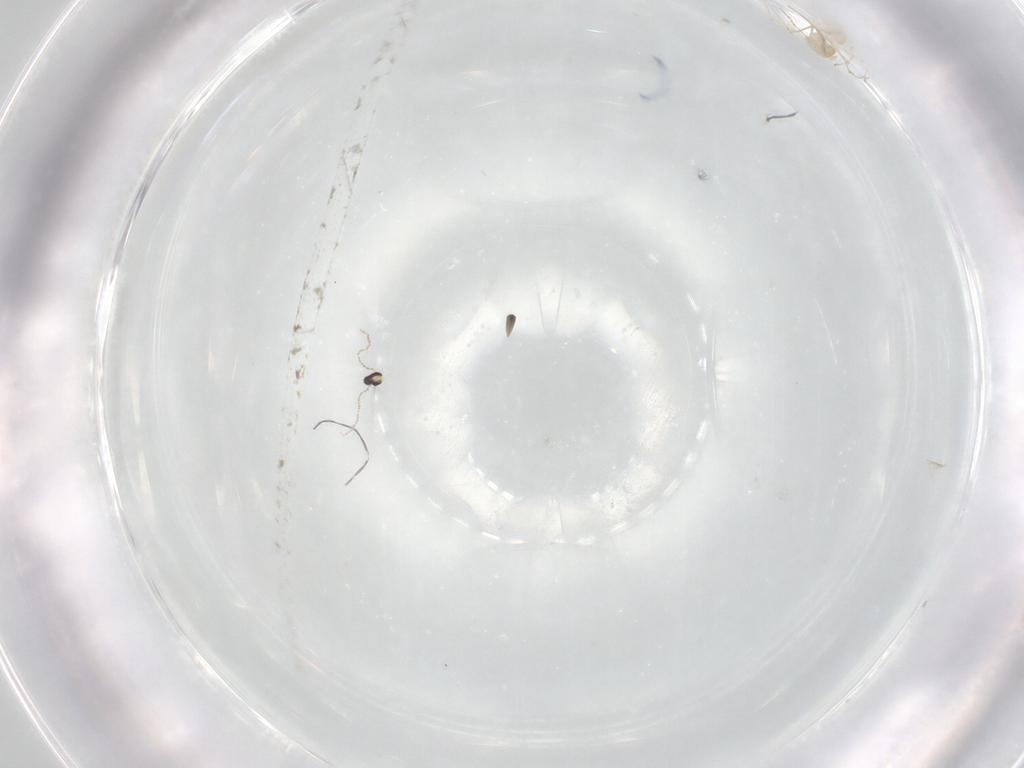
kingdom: Animalia
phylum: Arthropoda
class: Insecta
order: Diptera
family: Cecidomyiidae
